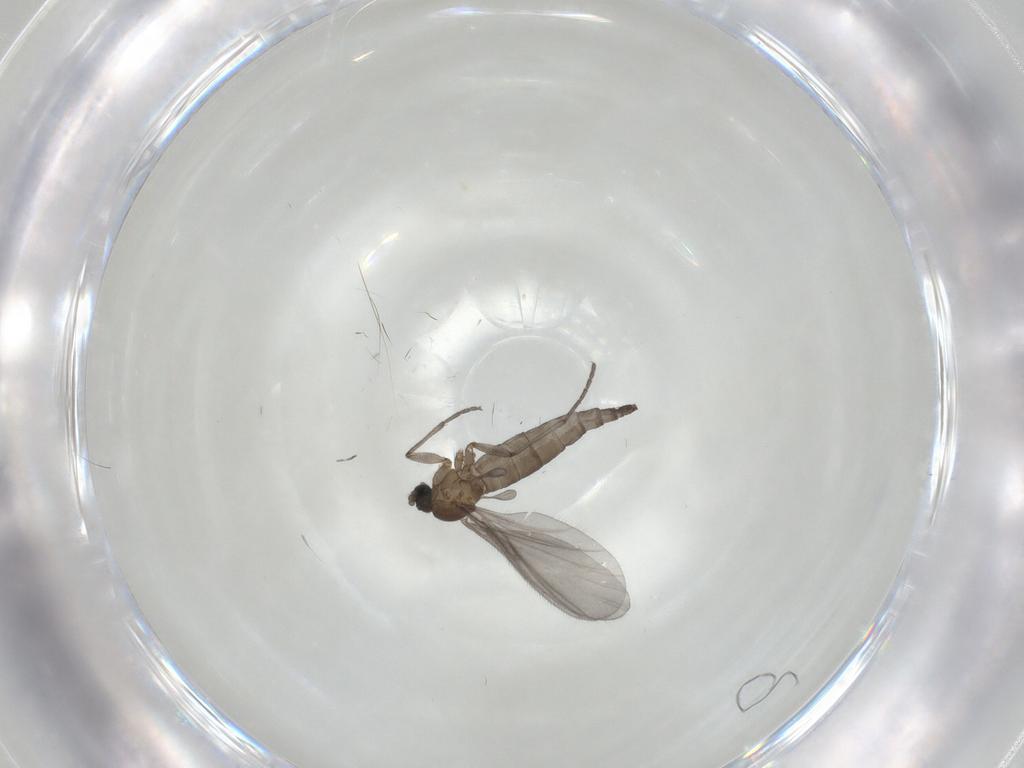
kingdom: Animalia
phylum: Arthropoda
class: Insecta
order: Diptera
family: Sciaridae
